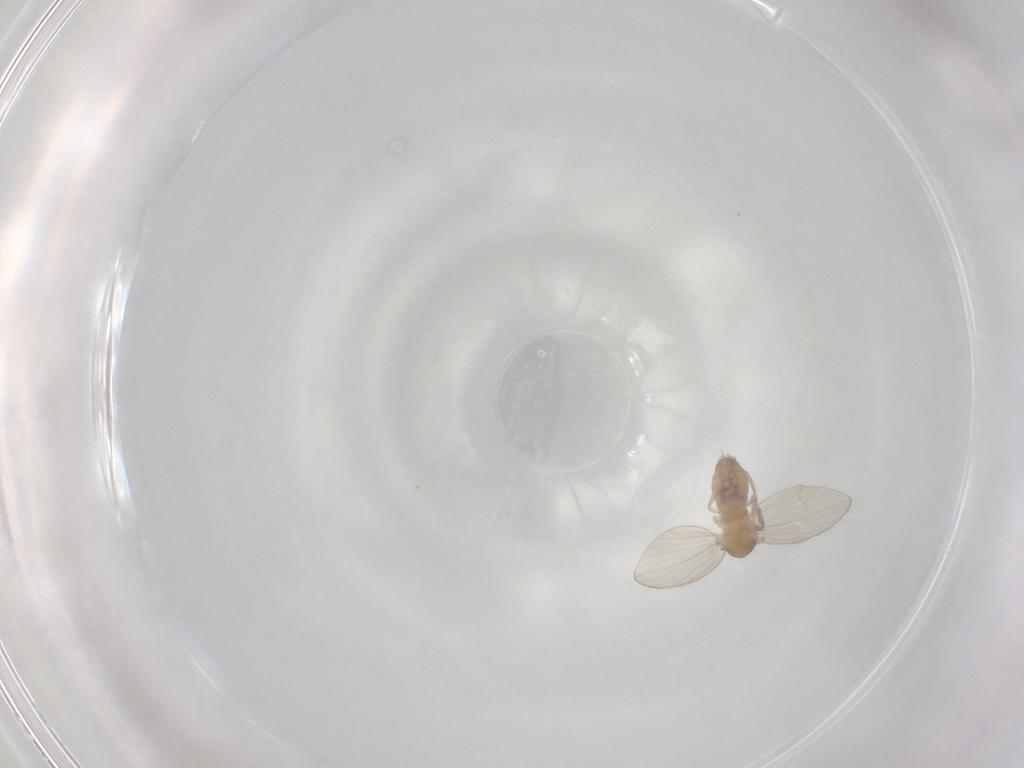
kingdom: Animalia
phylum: Arthropoda
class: Insecta
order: Diptera
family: Psychodidae
